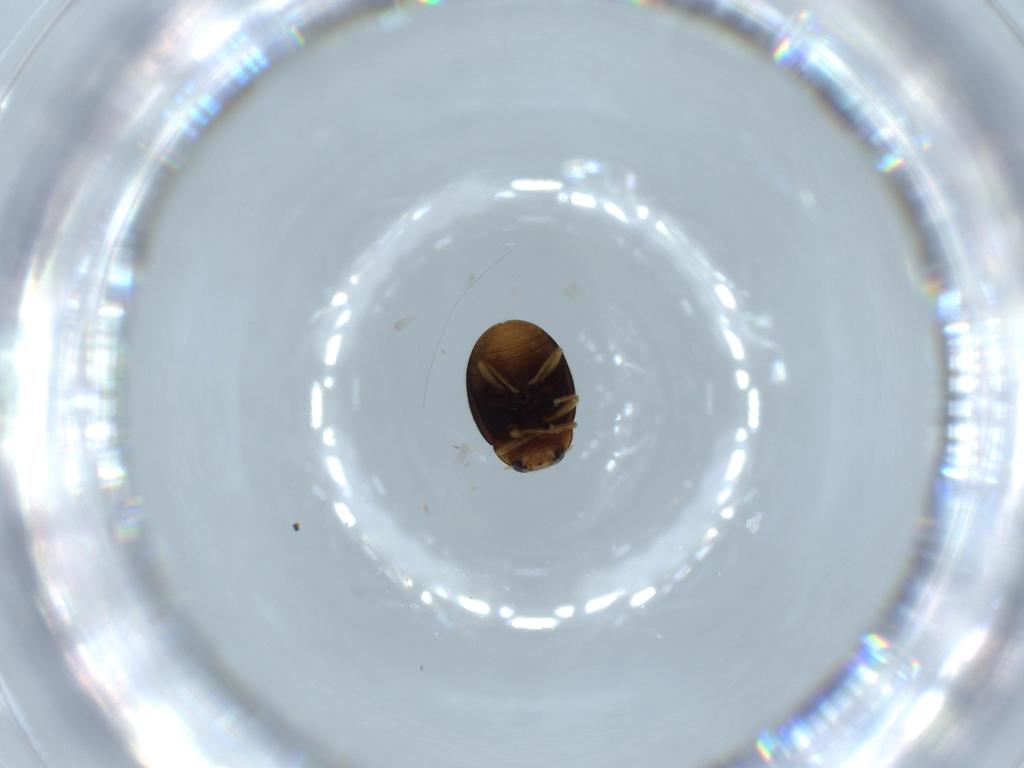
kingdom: Animalia
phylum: Arthropoda
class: Insecta
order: Coleoptera
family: Coccinellidae
